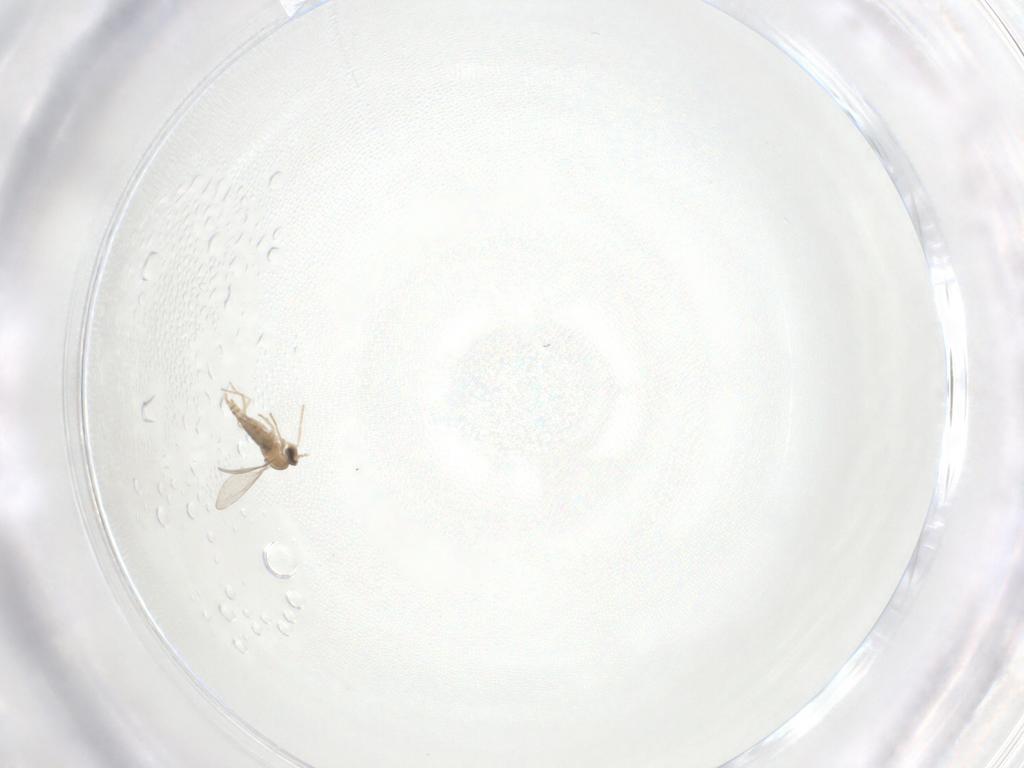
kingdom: Animalia
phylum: Arthropoda
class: Insecta
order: Diptera
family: Cecidomyiidae
